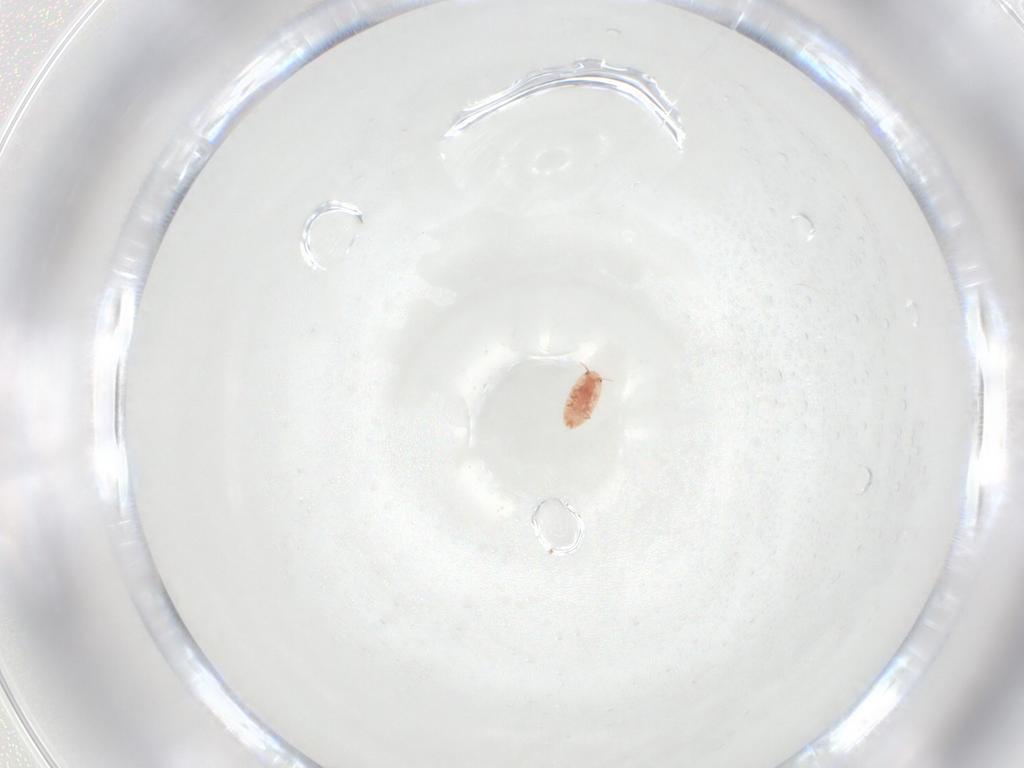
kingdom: Animalia
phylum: Arthropoda
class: Insecta
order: Hemiptera
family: Coccidae
